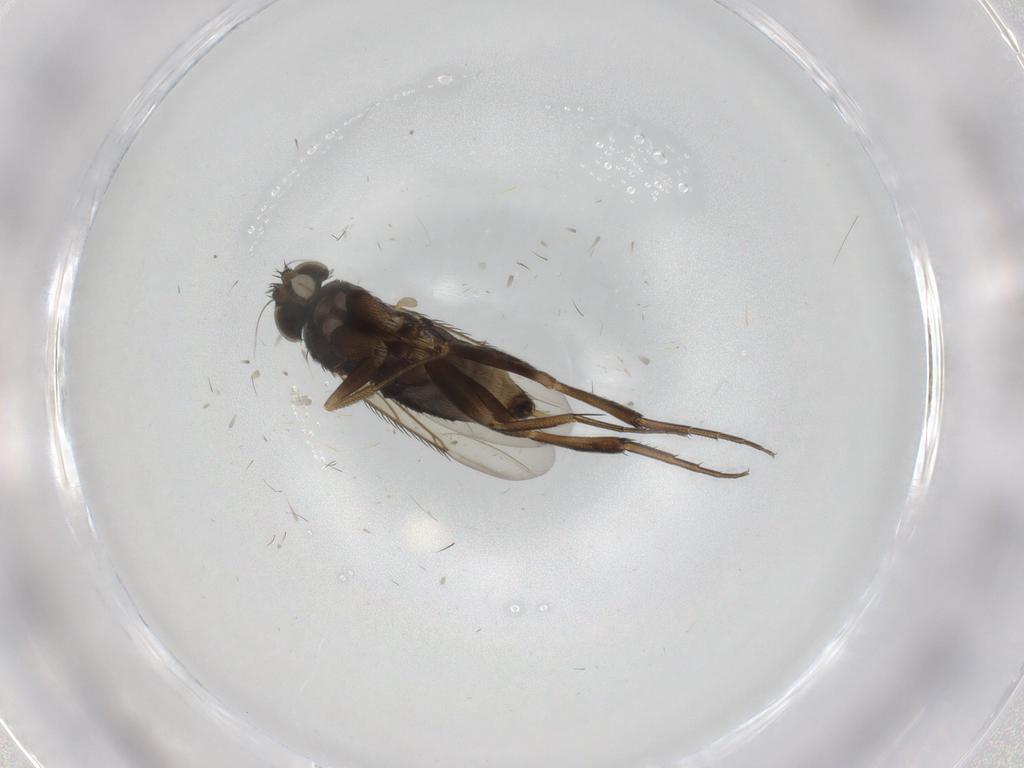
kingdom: Animalia
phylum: Arthropoda
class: Insecta
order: Diptera
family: Phoridae
